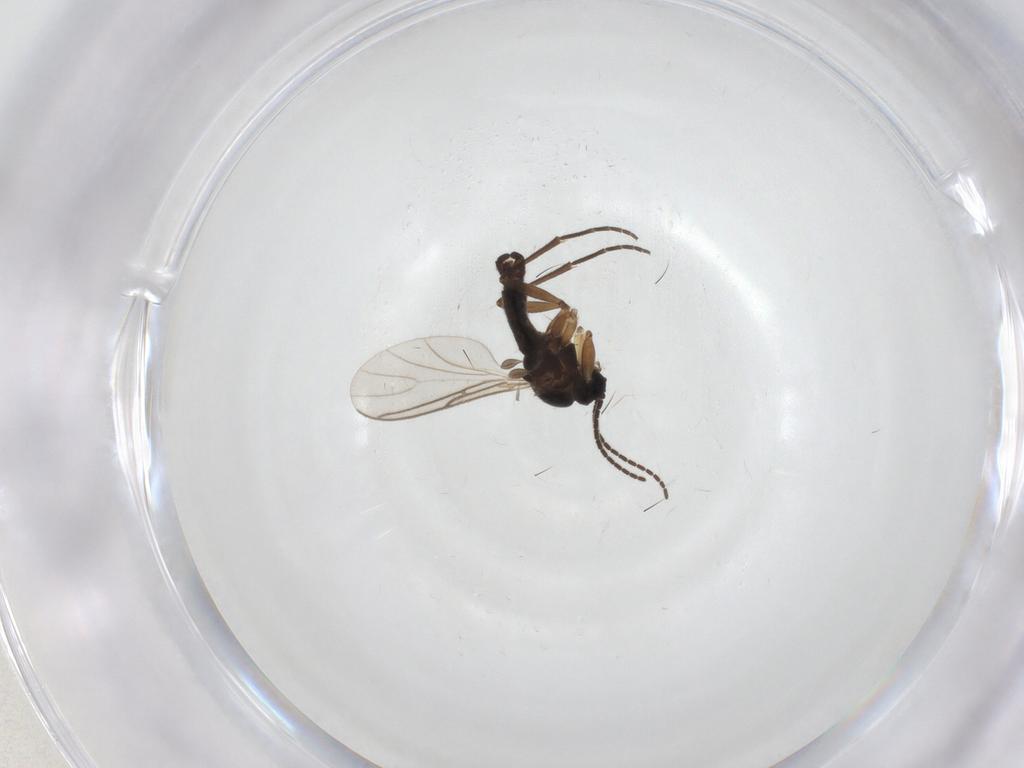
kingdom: Animalia
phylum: Arthropoda
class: Insecta
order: Diptera
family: Sciaridae
